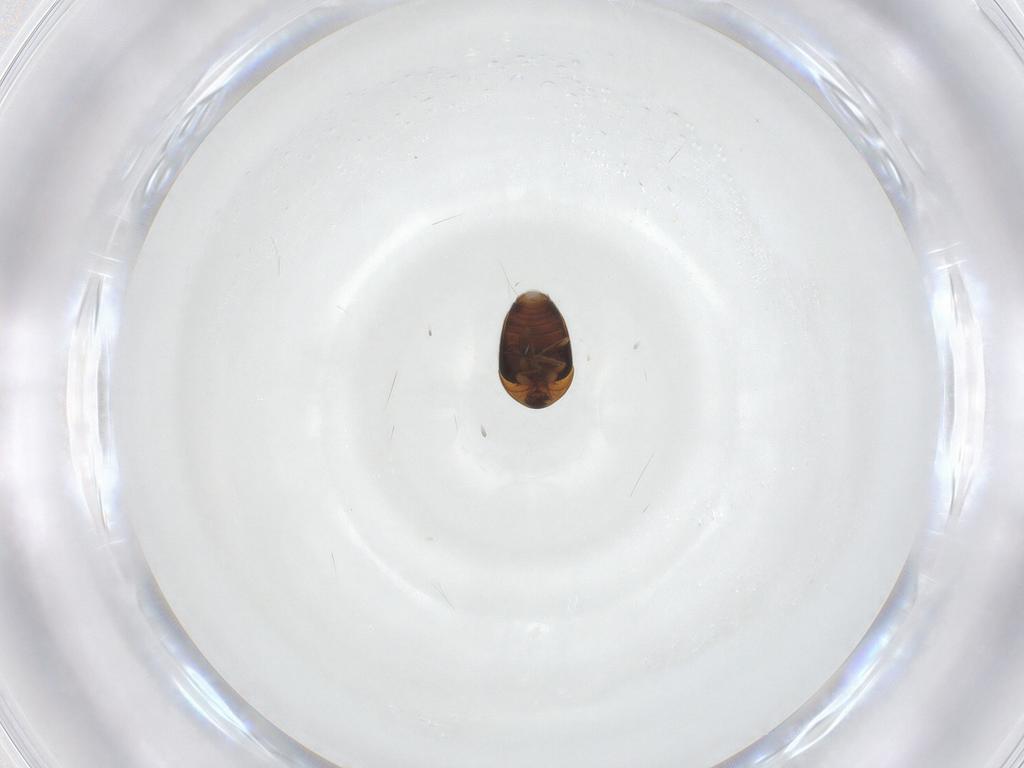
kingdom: Animalia
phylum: Arthropoda
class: Insecta
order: Coleoptera
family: Corylophidae
